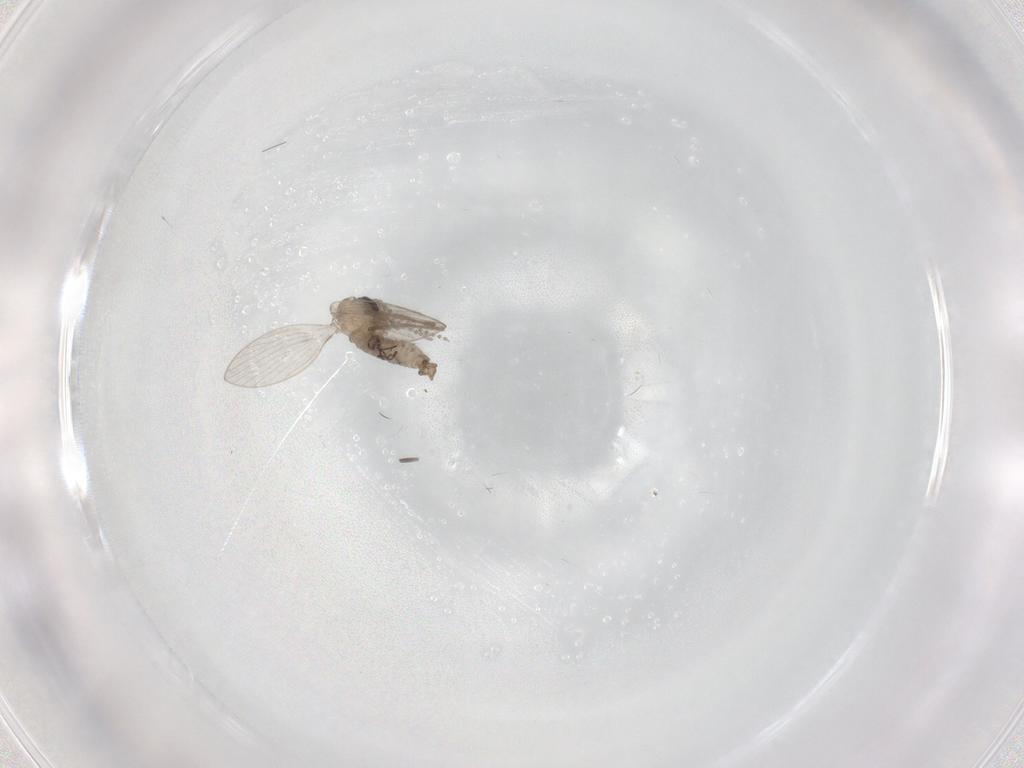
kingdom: Animalia
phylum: Arthropoda
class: Insecta
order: Diptera
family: Psychodidae
